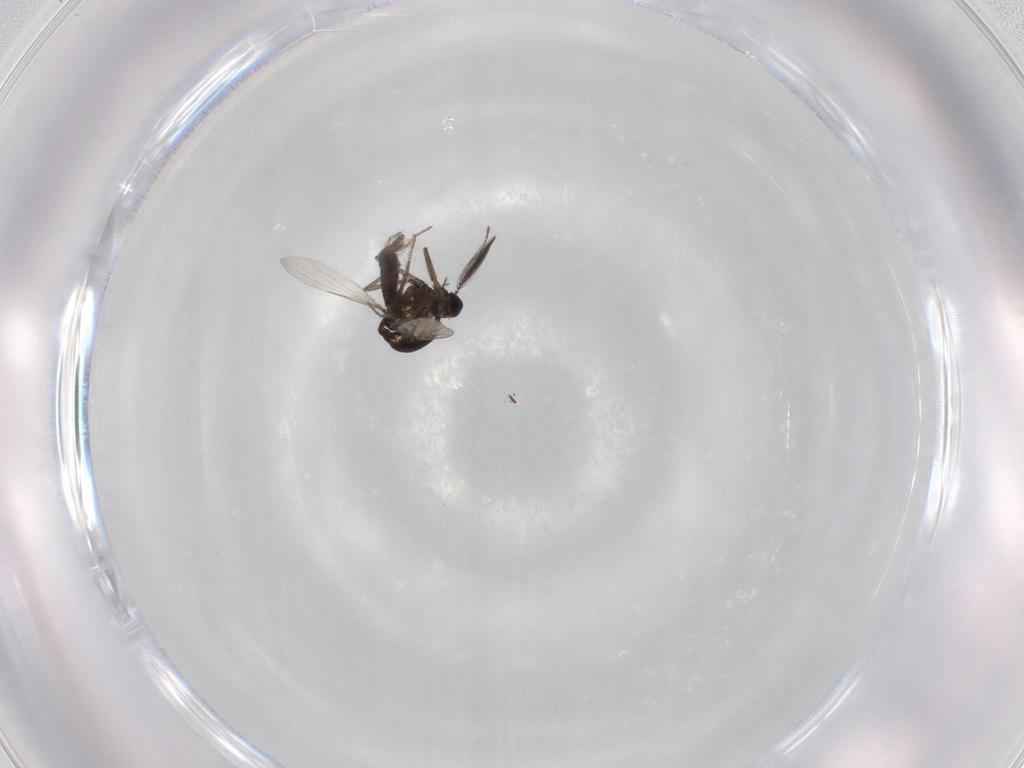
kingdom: Animalia
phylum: Arthropoda
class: Insecta
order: Diptera
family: Ceratopogonidae
